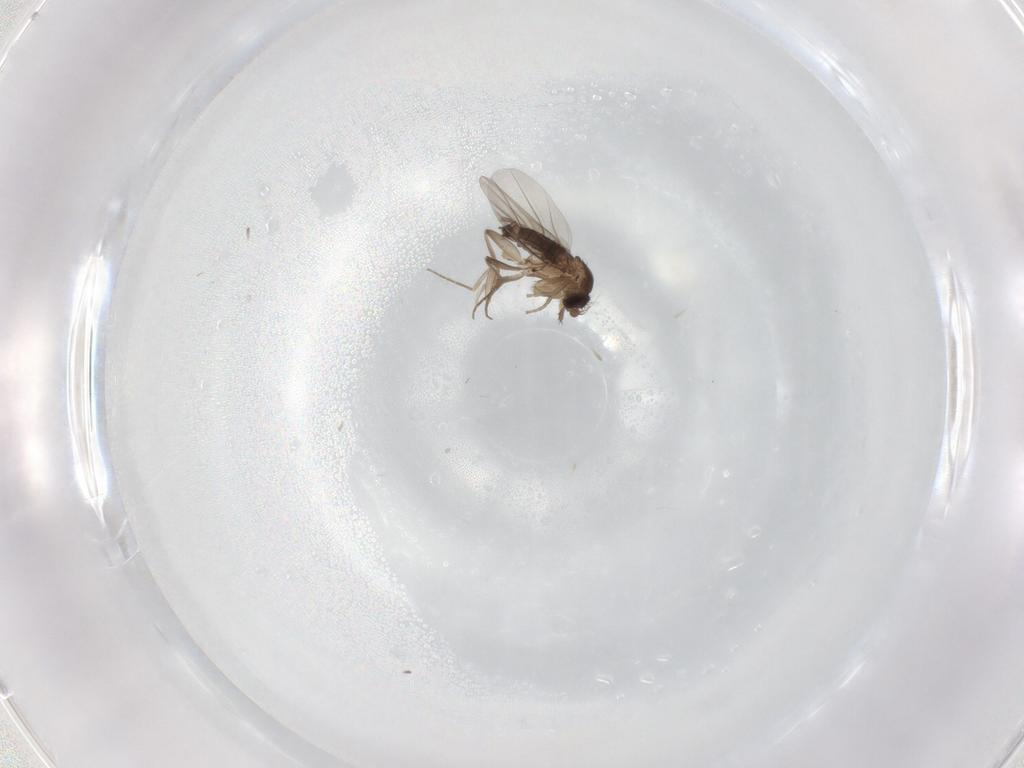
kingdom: Animalia
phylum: Arthropoda
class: Insecta
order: Diptera
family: Phoridae
